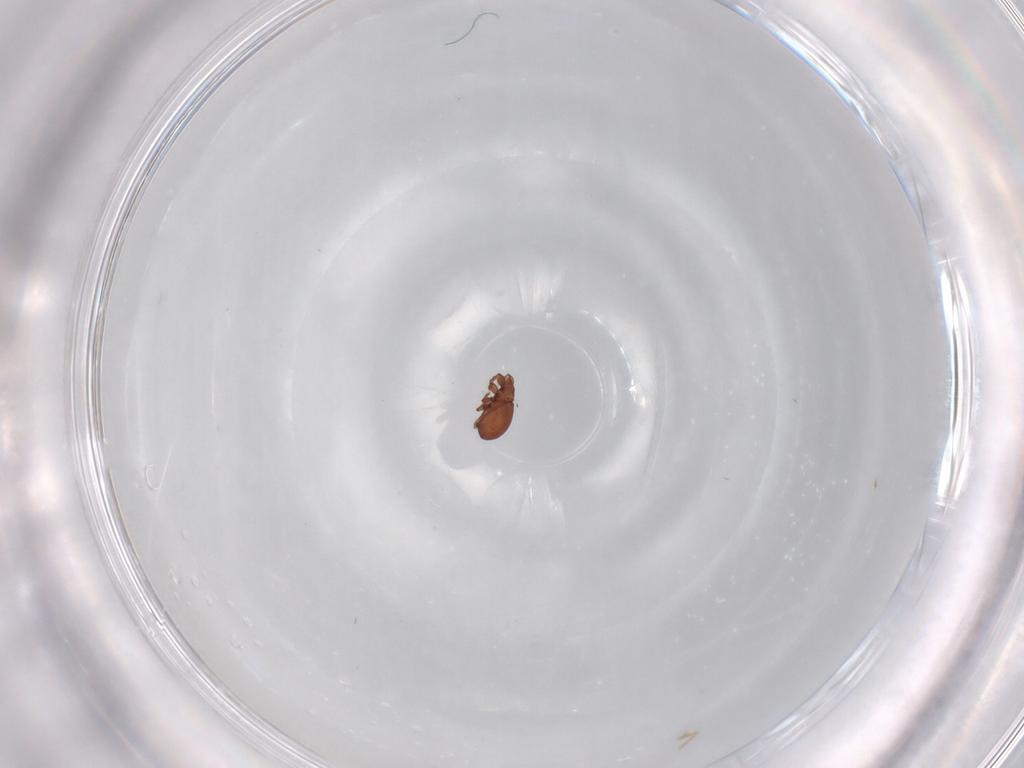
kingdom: Animalia
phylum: Arthropoda
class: Arachnida
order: Sarcoptiformes
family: Eremaeidae
